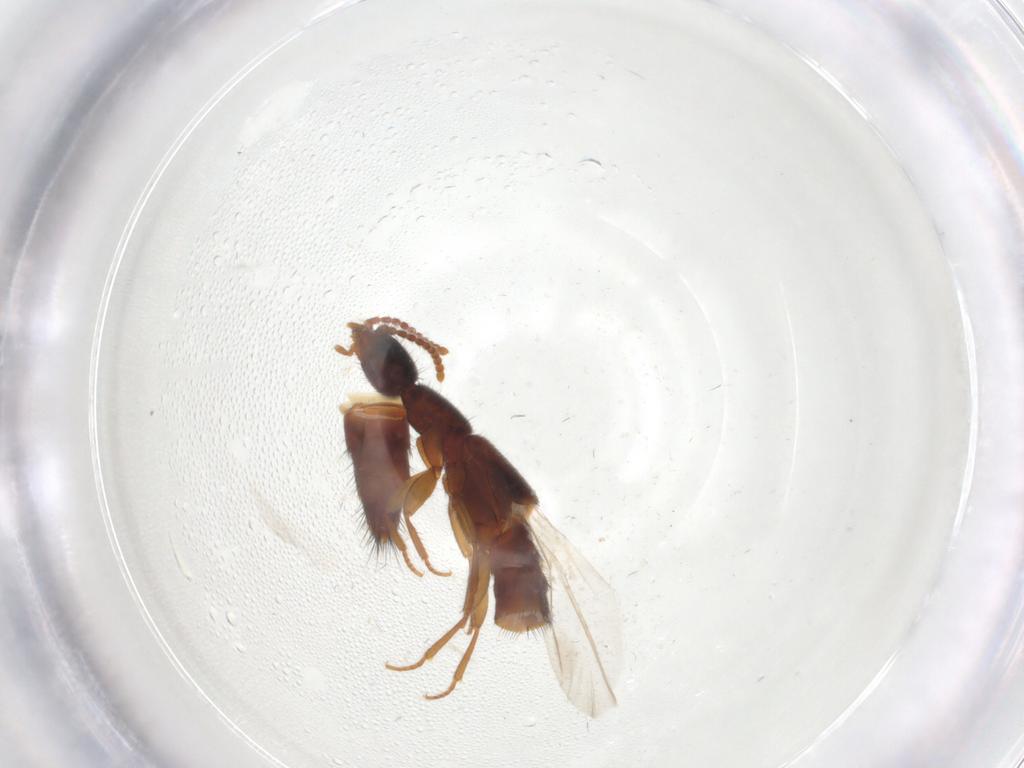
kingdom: Animalia
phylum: Arthropoda
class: Insecta
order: Coleoptera
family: Staphylinidae
